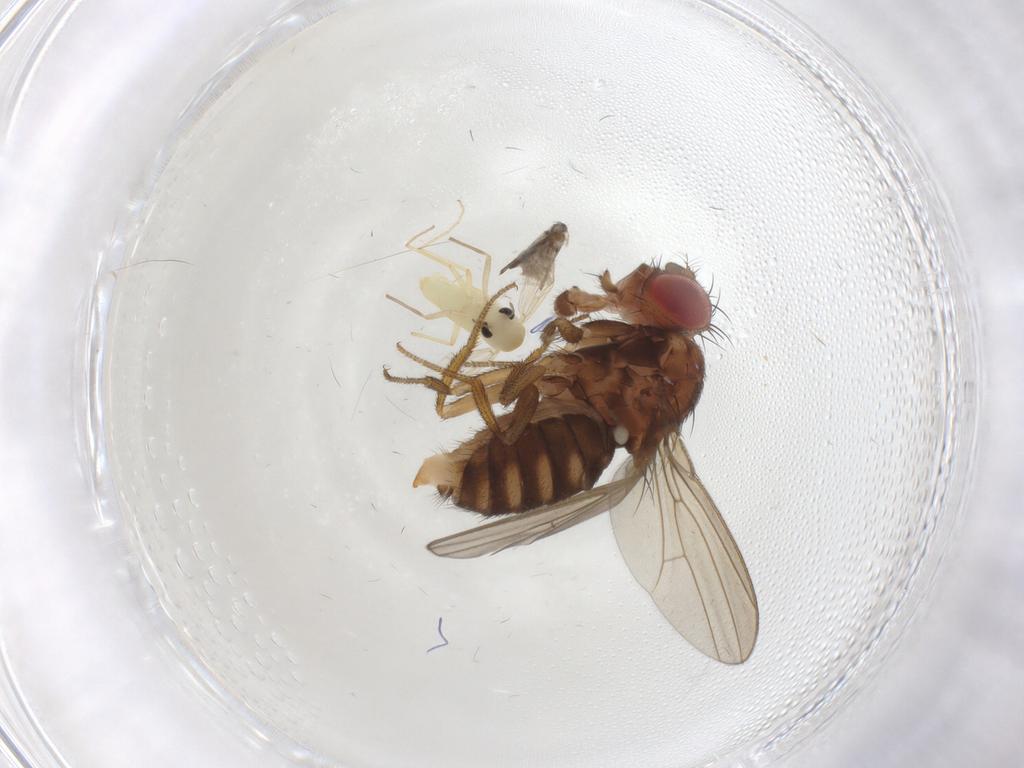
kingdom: Animalia
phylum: Arthropoda
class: Insecta
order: Diptera
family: Chironomidae
